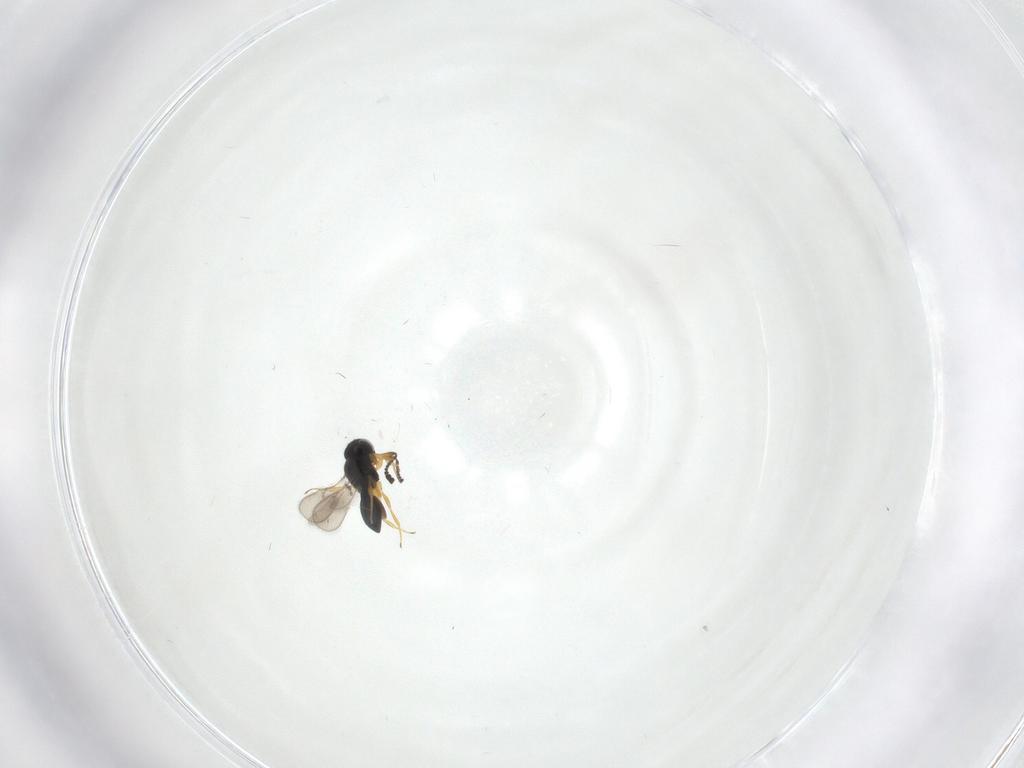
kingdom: Animalia
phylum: Arthropoda
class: Insecta
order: Hymenoptera
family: Scelionidae
